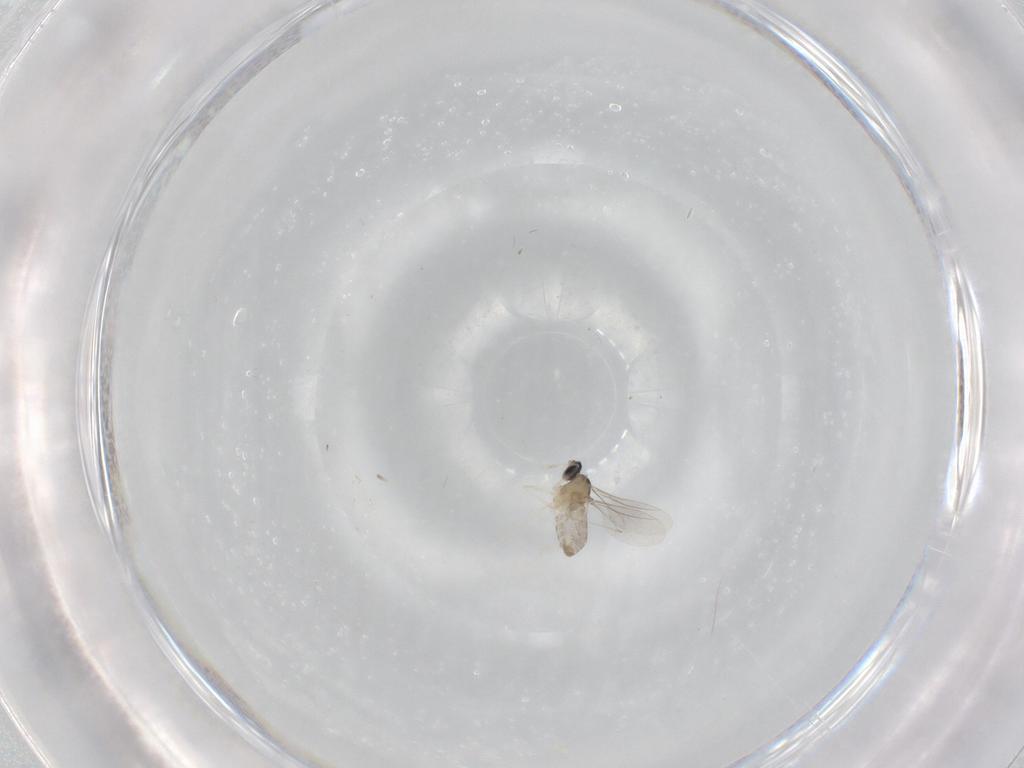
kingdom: Animalia
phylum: Arthropoda
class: Insecta
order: Diptera
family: Cecidomyiidae
